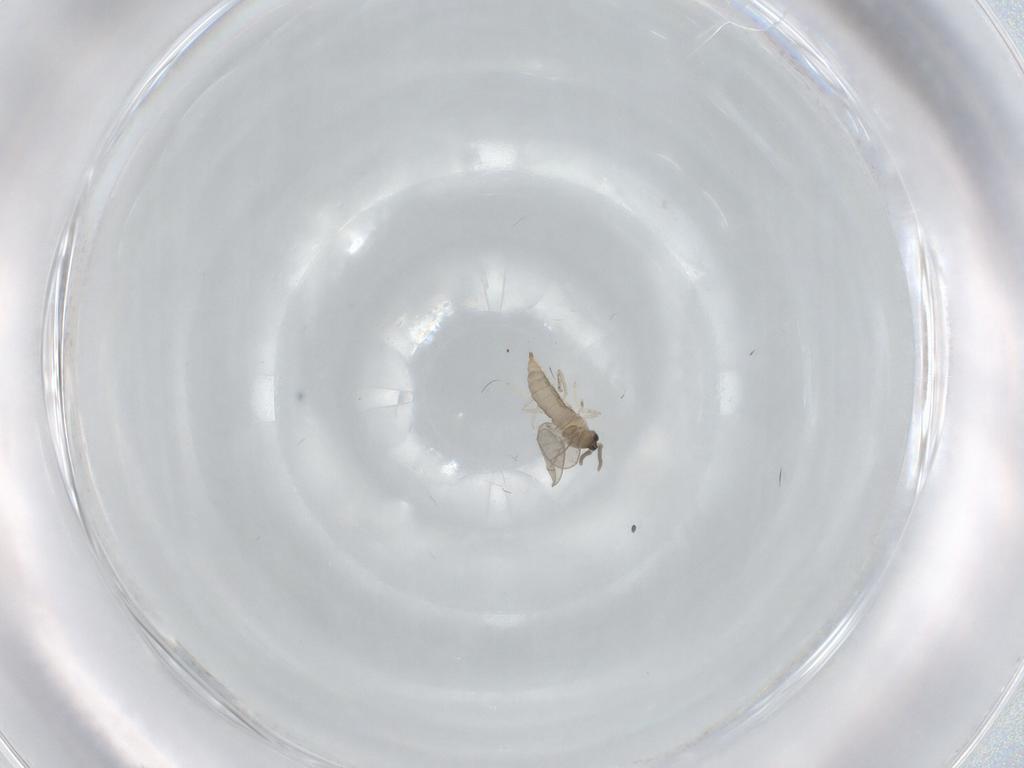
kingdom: Animalia
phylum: Arthropoda
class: Insecta
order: Diptera
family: Cecidomyiidae
